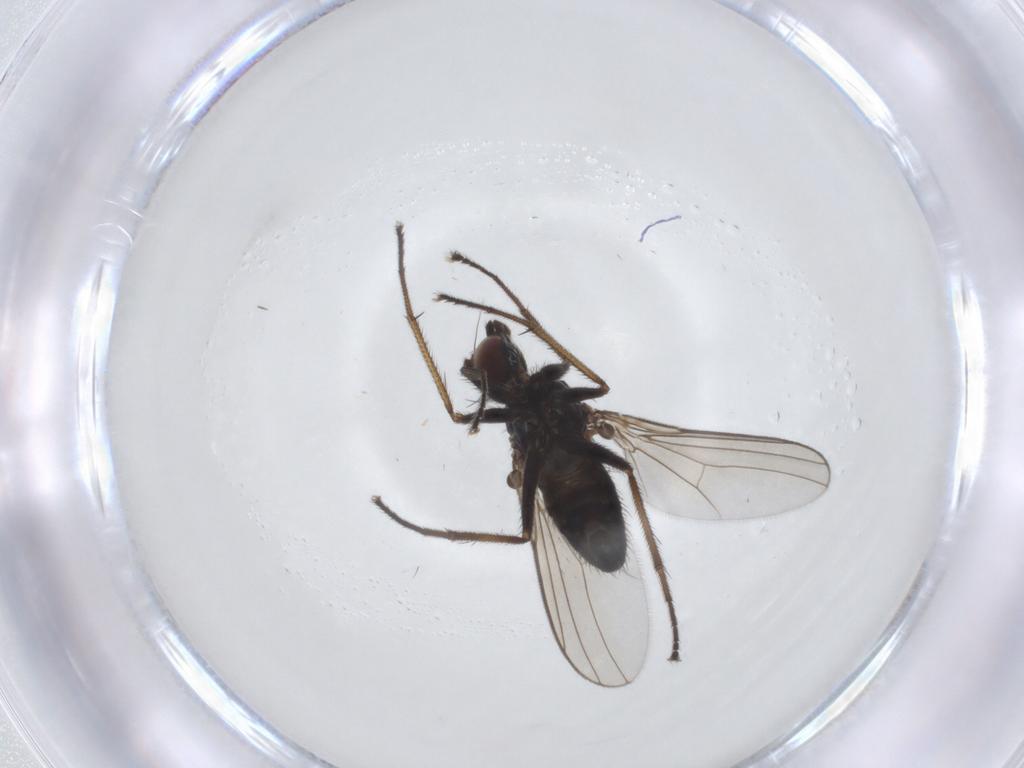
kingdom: Animalia
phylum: Arthropoda
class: Insecta
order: Diptera
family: Dolichopodidae
